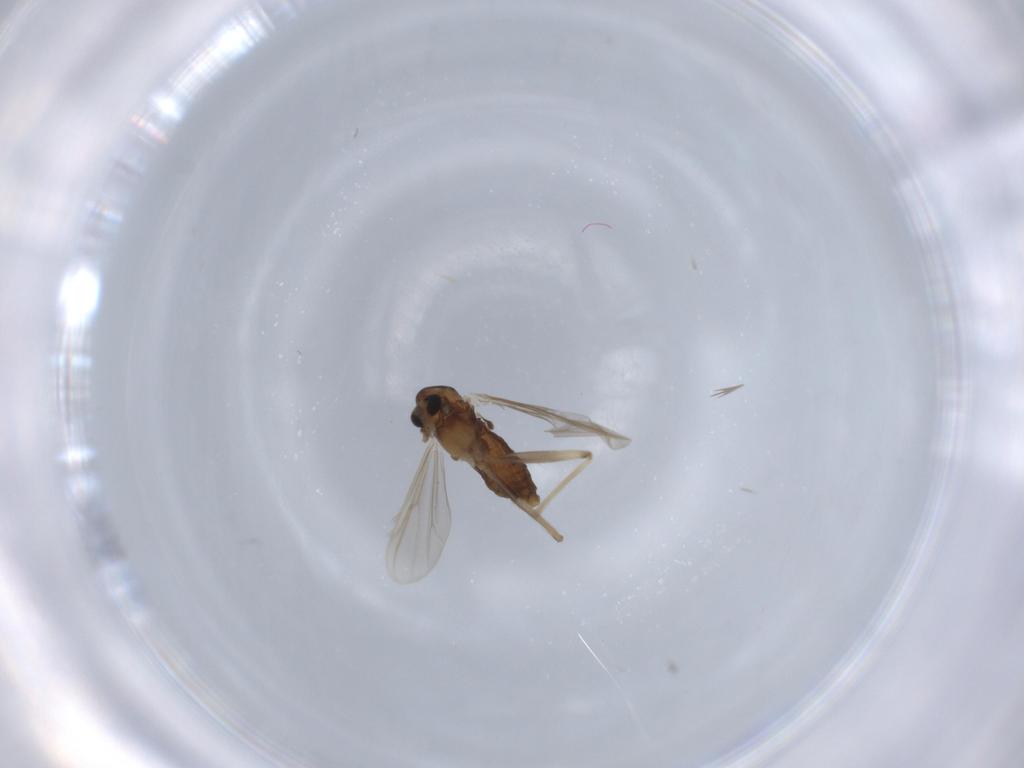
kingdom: Animalia
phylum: Arthropoda
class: Insecta
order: Diptera
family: Chironomidae
